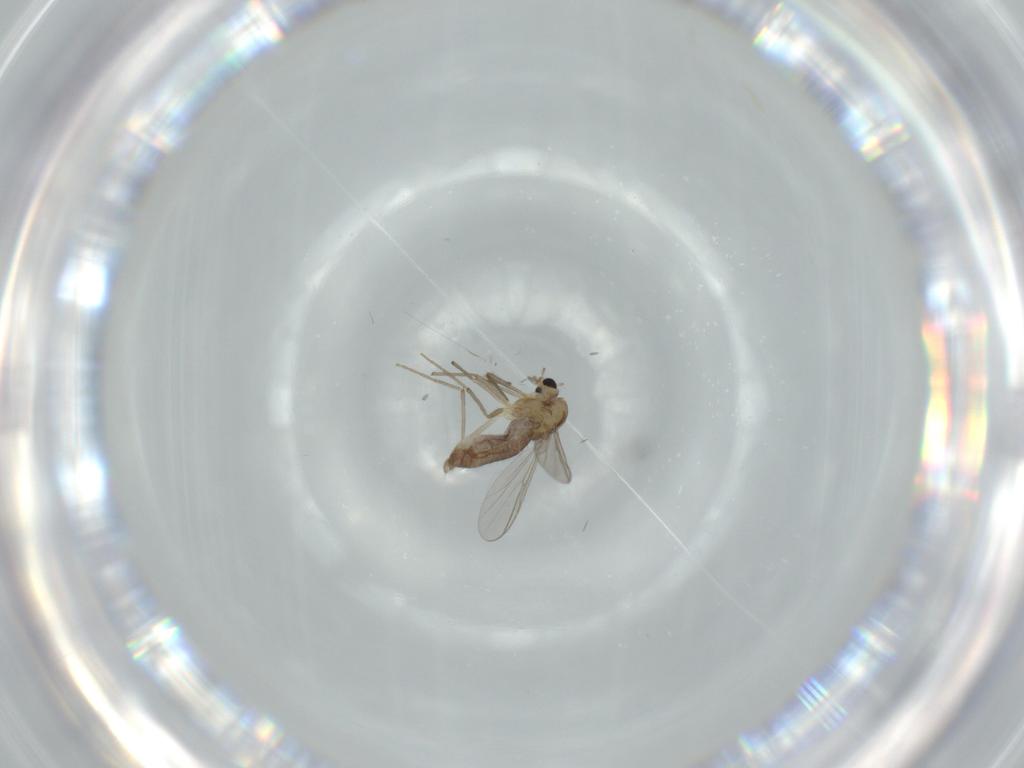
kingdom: Animalia
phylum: Arthropoda
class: Insecta
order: Diptera
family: Chironomidae
